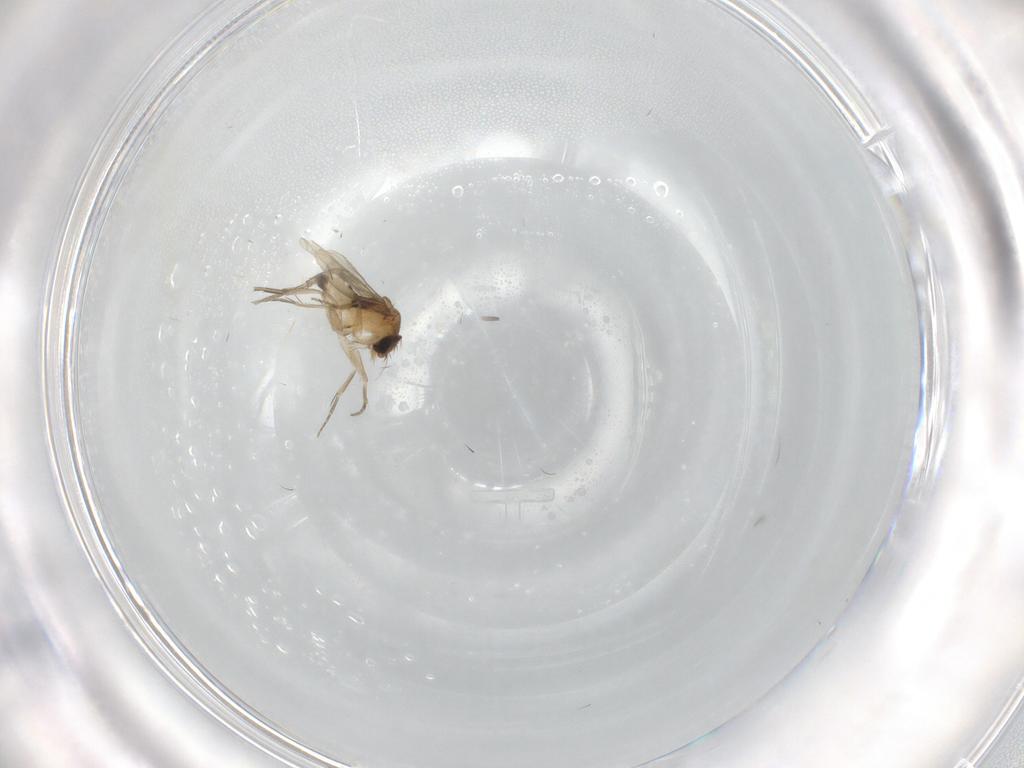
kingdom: Animalia
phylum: Arthropoda
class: Insecta
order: Diptera
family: Phoridae
